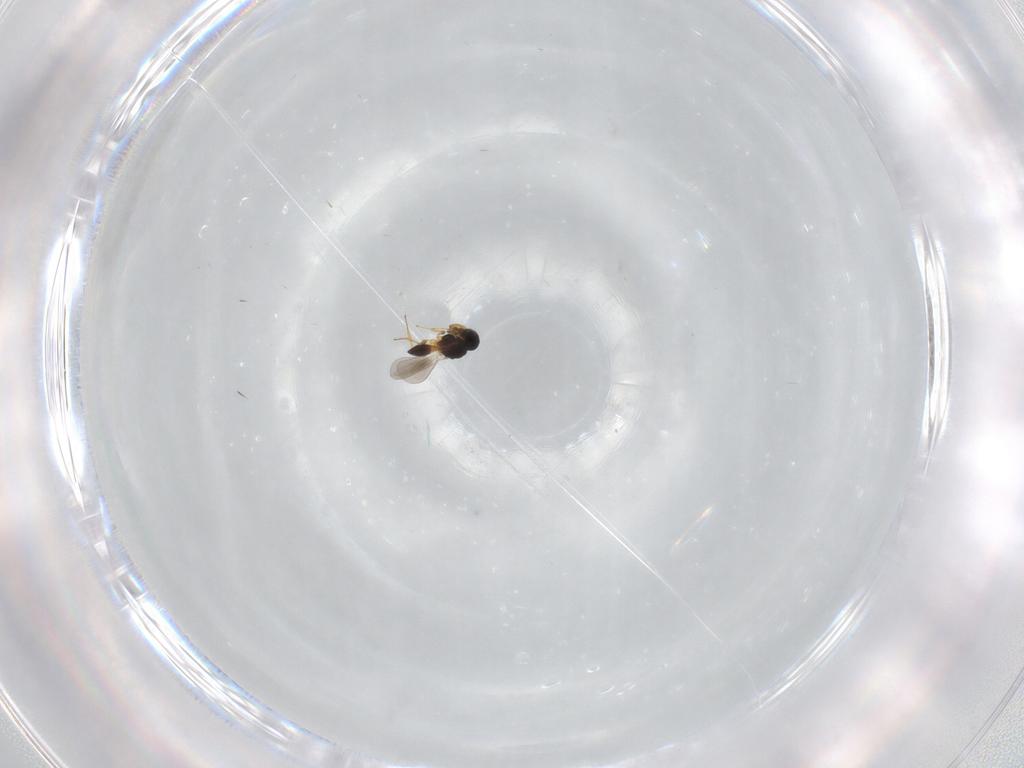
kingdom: Animalia
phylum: Arthropoda
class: Insecta
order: Hymenoptera
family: Platygastridae
